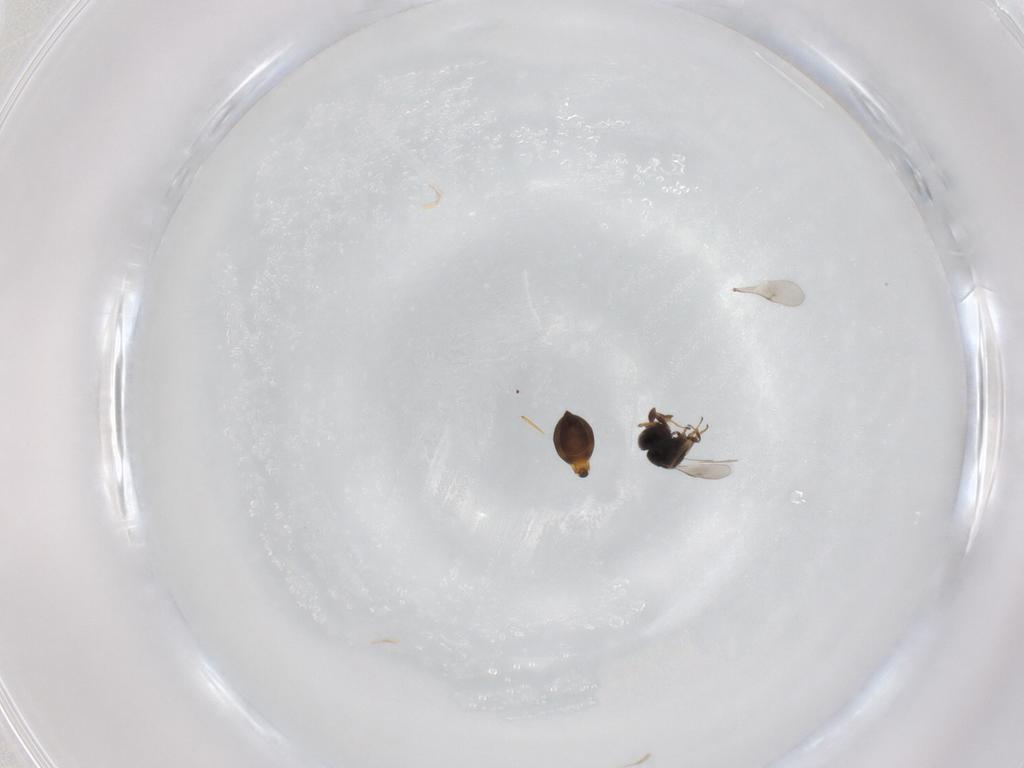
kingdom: Animalia
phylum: Arthropoda
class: Insecta
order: Hymenoptera
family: Scelionidae
